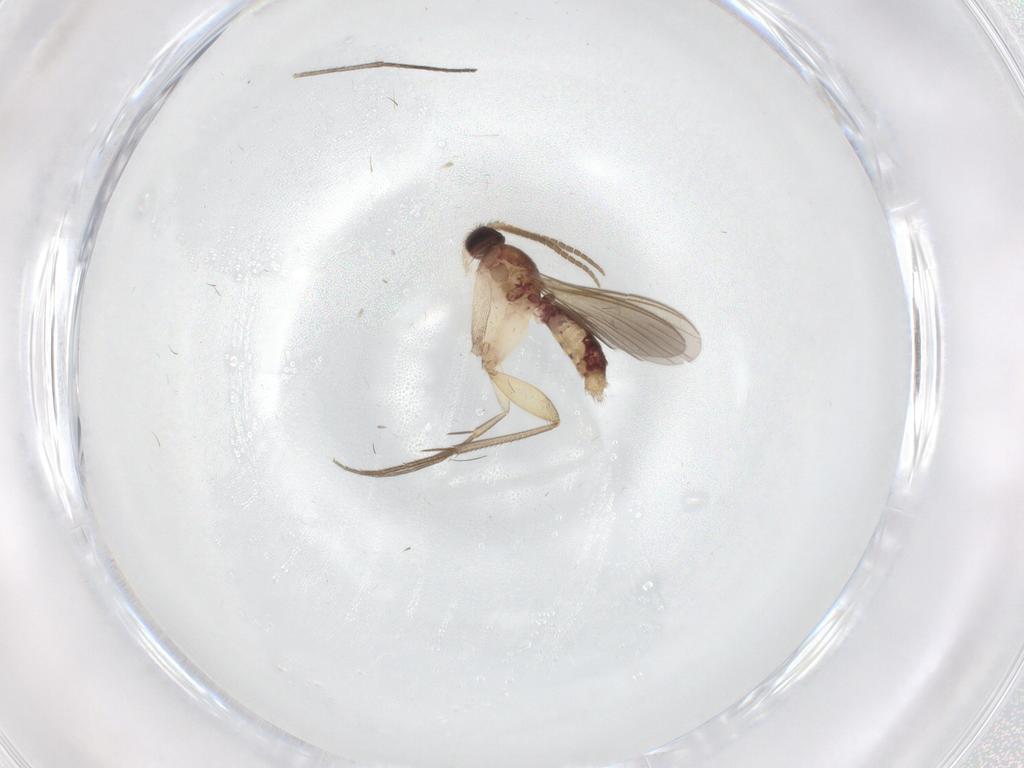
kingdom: Animalia
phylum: Arthropoda
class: Insecta
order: Diptera
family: Mycetophilidae
